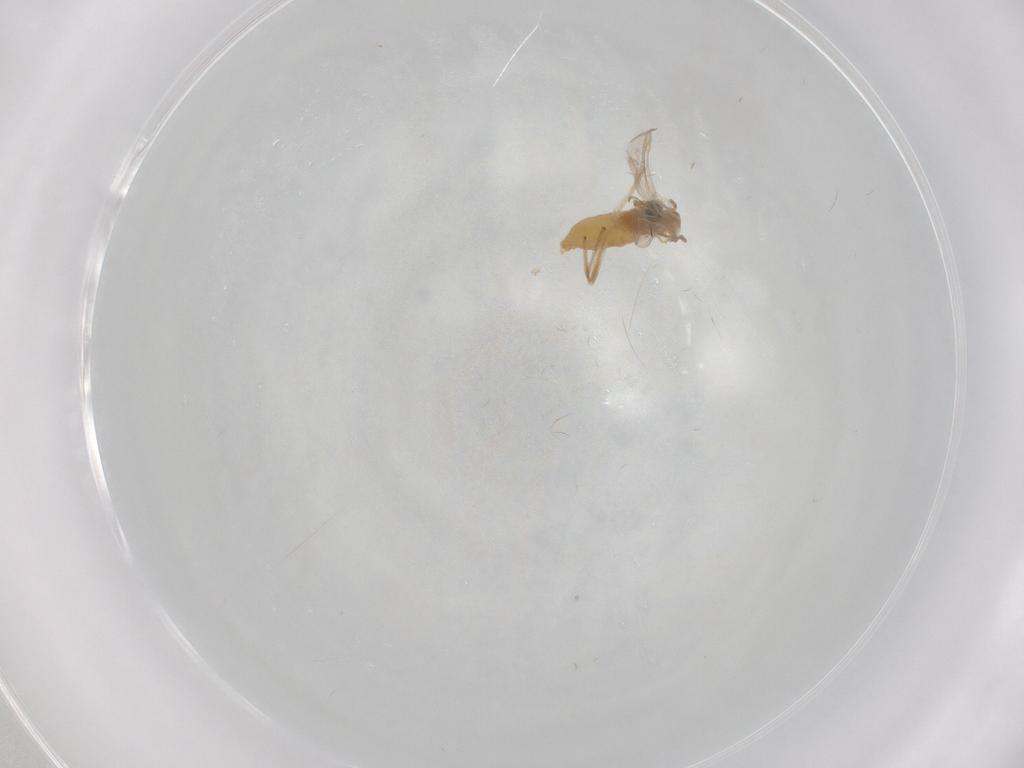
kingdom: Animalia
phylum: Arthropoda
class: Insecta
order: Diptera
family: Chironomidae
